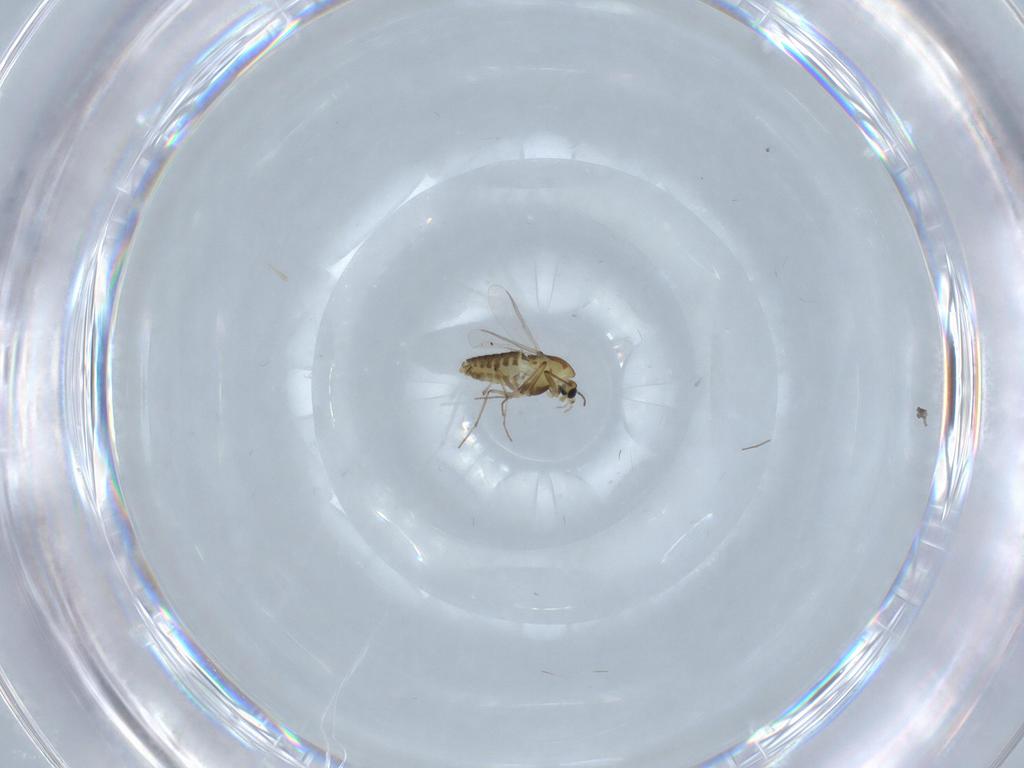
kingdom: Animalia
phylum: Arthropoda
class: Insecta
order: Diptera
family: Chironomidae
